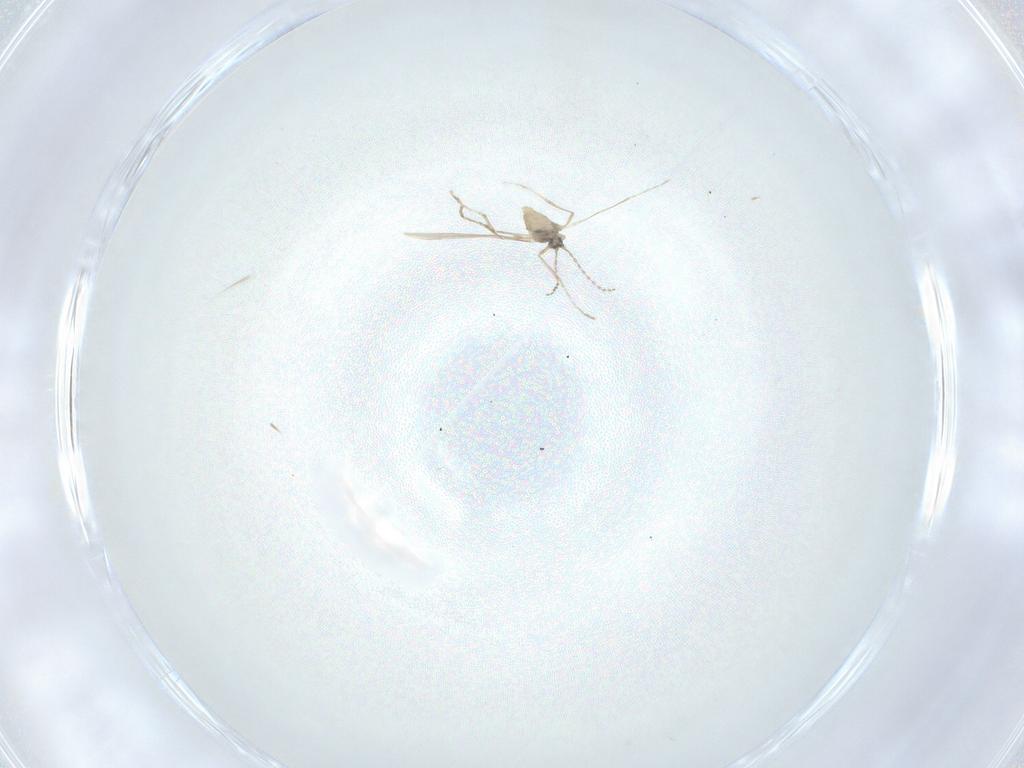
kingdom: Animalia
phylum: Arthropoda
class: Insecta
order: Diptera
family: Cecidomyiidae
